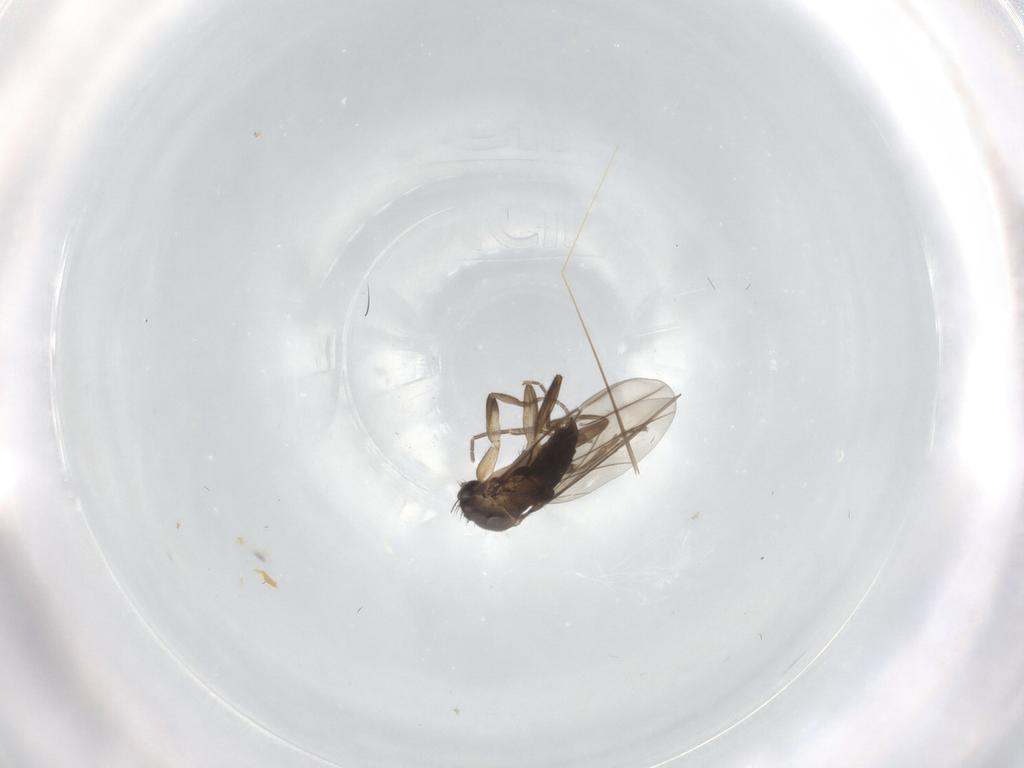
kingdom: Animalia
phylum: Arthropoda
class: Insecta
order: Diptera
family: Phoridae
